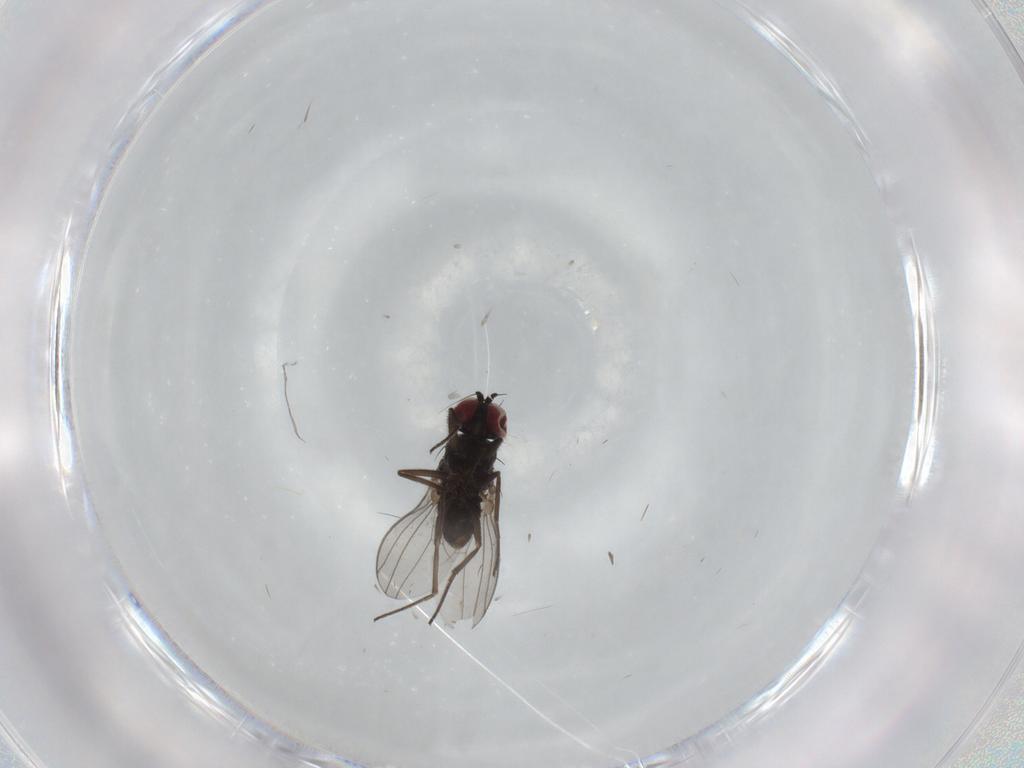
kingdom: Animalia
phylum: Arthropoda
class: Insecta
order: Diptera
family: Dolichopodidae
